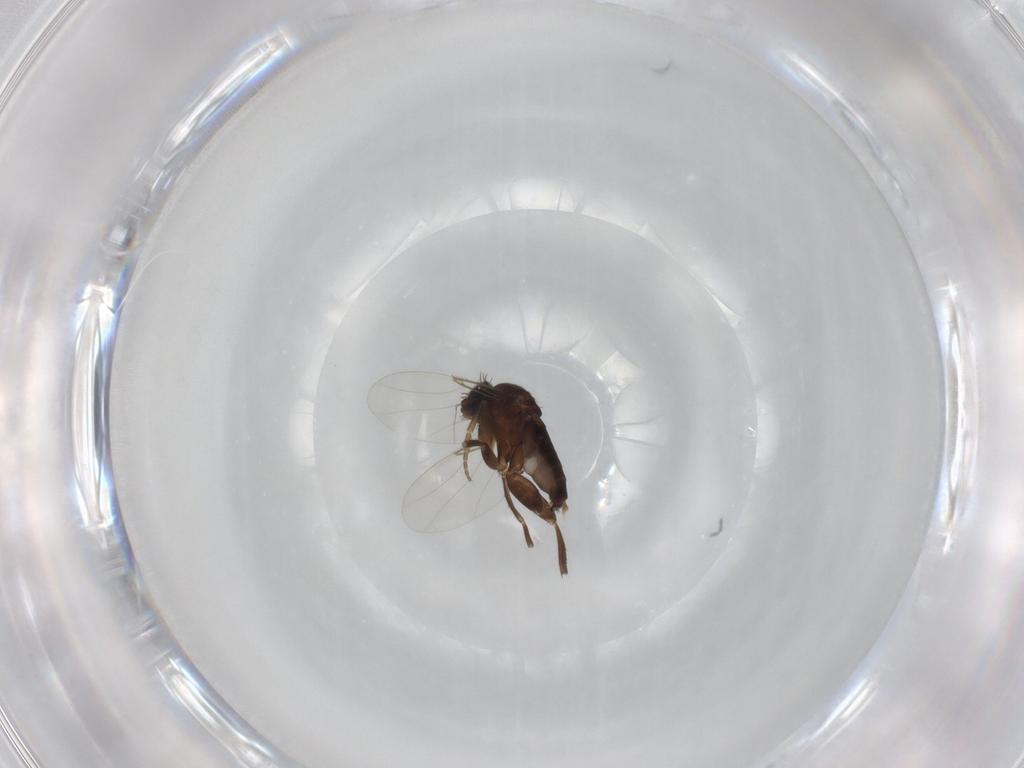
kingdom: Animalia
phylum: Arthropoda
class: Insecta
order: Diptera
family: Phoridae
